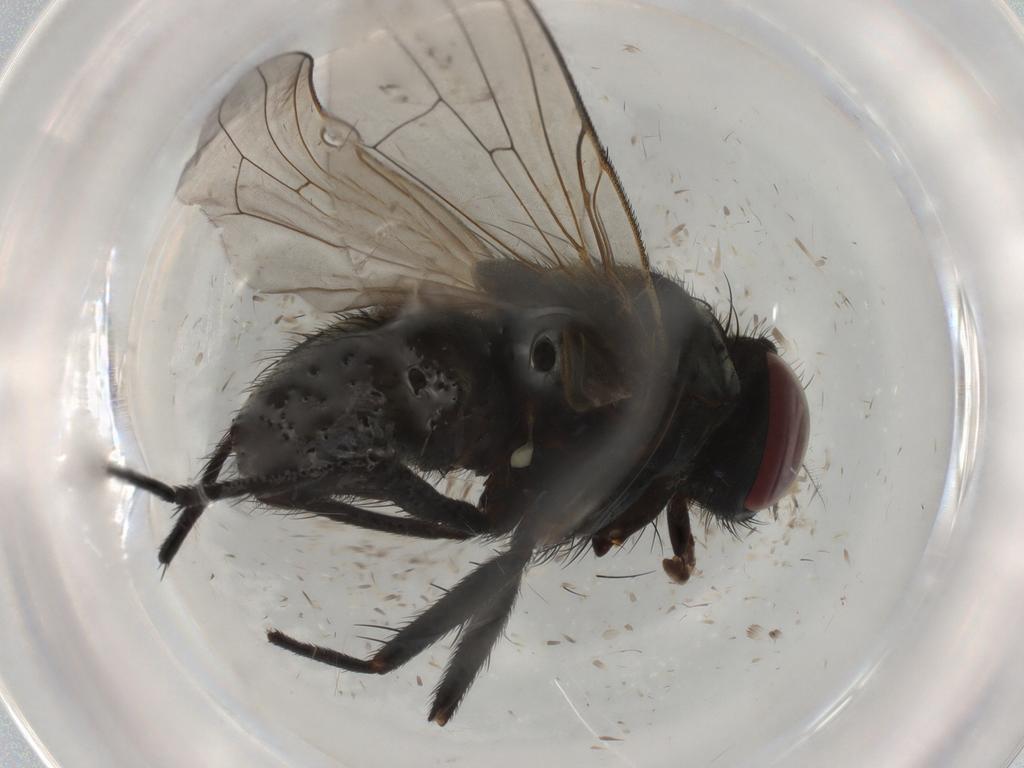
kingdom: Animalia
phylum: Arthropoda
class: Insecta
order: Diptera
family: Muscidae
